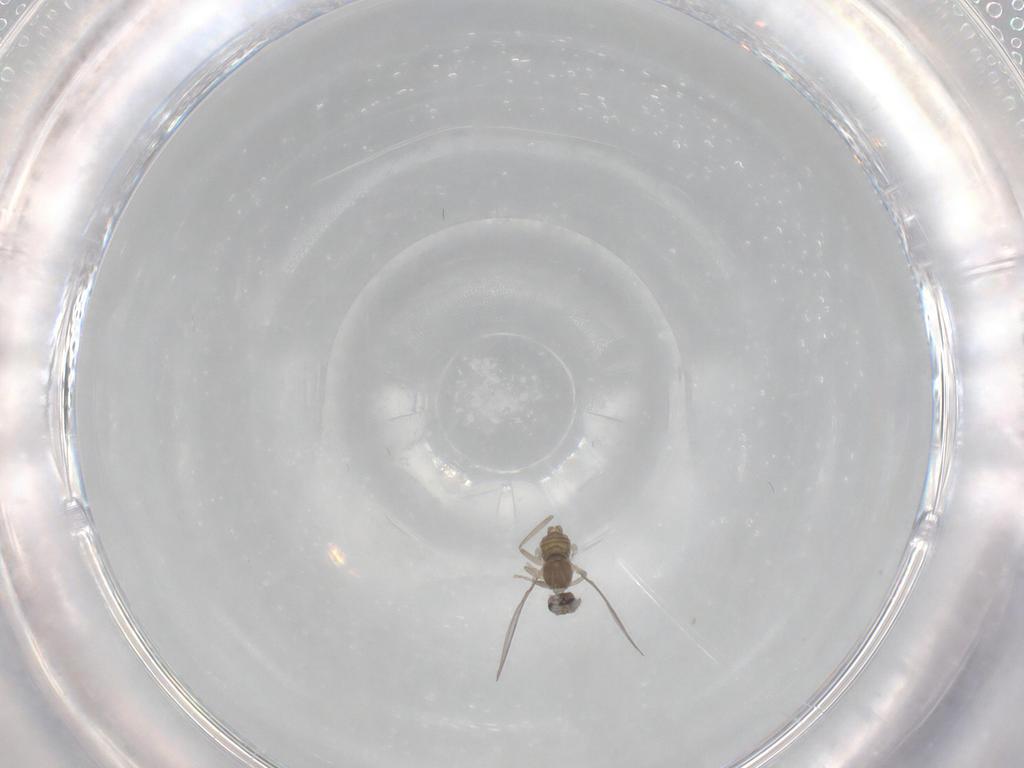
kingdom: Animalia
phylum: Arthropoda
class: Insecta
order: Diptera
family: Cecidomyiidae
